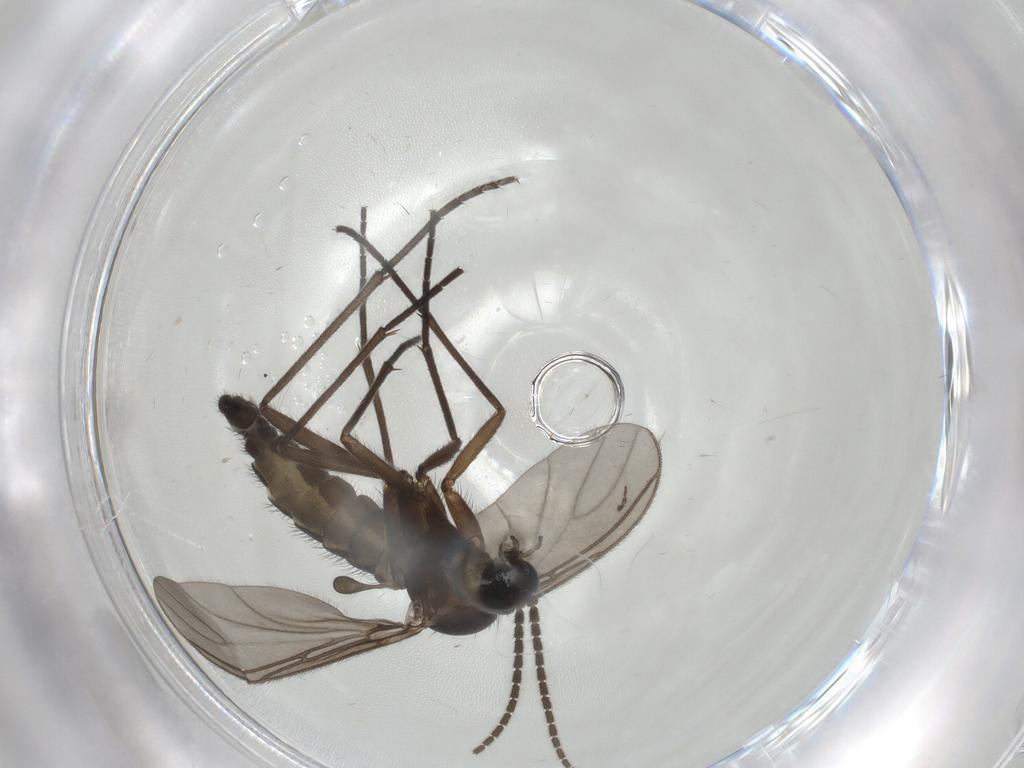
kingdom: Animalia
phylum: Arthropoda
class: Insecta
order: Diptera
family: Sciaridae
